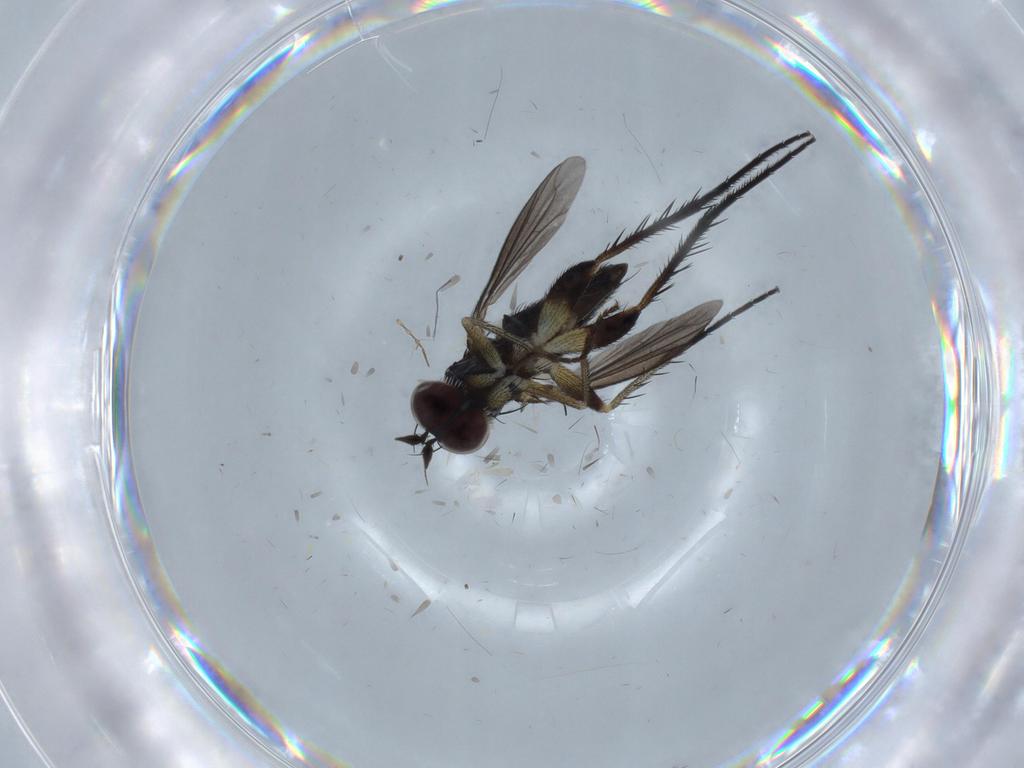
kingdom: Animalia
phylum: Arthropoda
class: Insecta
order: Diptera
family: Dolichopodidae
